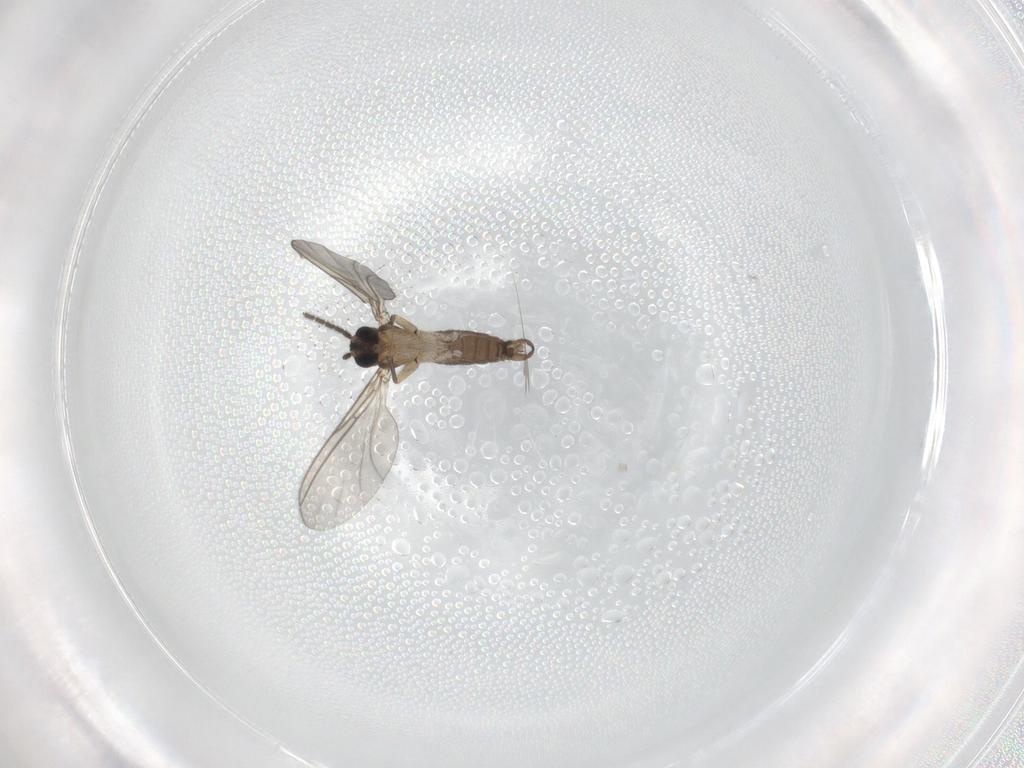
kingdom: Animalia
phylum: Arthropoda
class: Insecta
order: Diptera
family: Sciaridae
